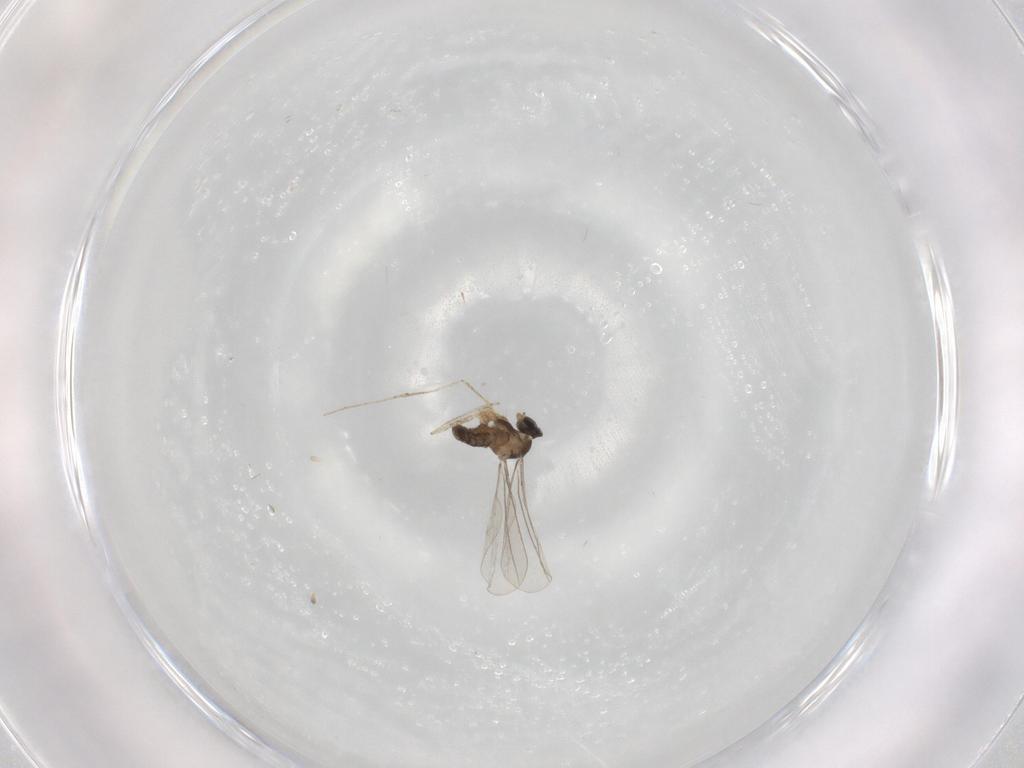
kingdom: Animalia
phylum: Arthropoda
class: Insecta
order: Diptera
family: Cecidomyiidae
